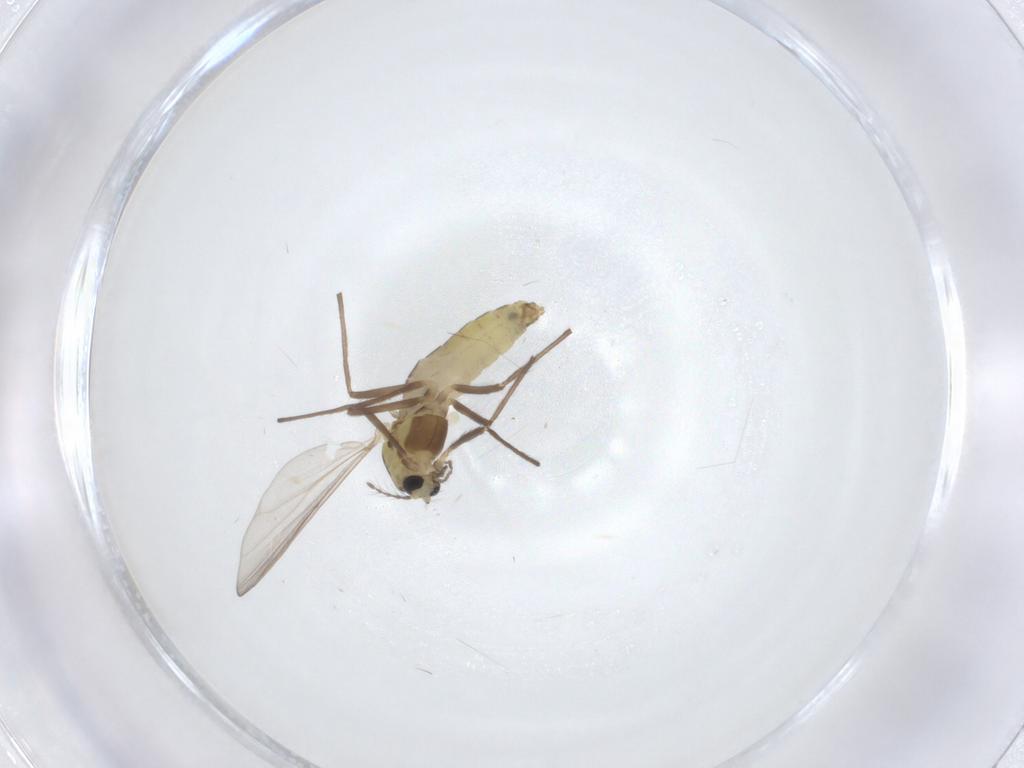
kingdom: Animalia
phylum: Arthropoda
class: Insecta
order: Diptera
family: Chironomidae
